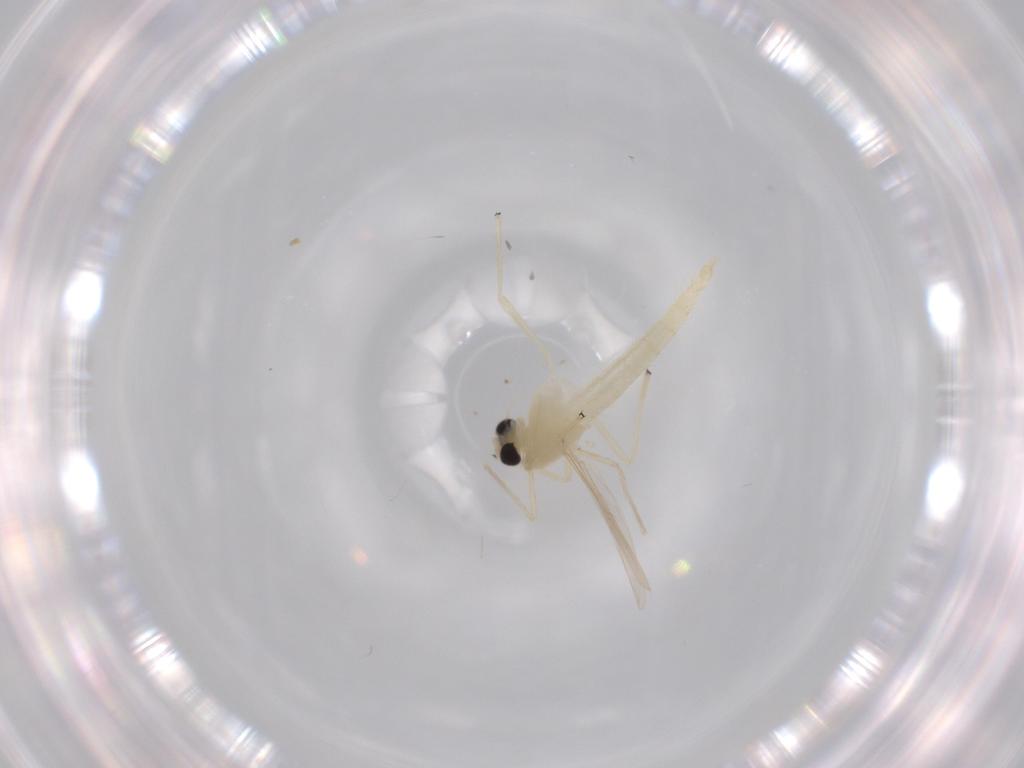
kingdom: Animalia
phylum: Arthropoda
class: Insecta
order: Diptera
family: Chironomidae
